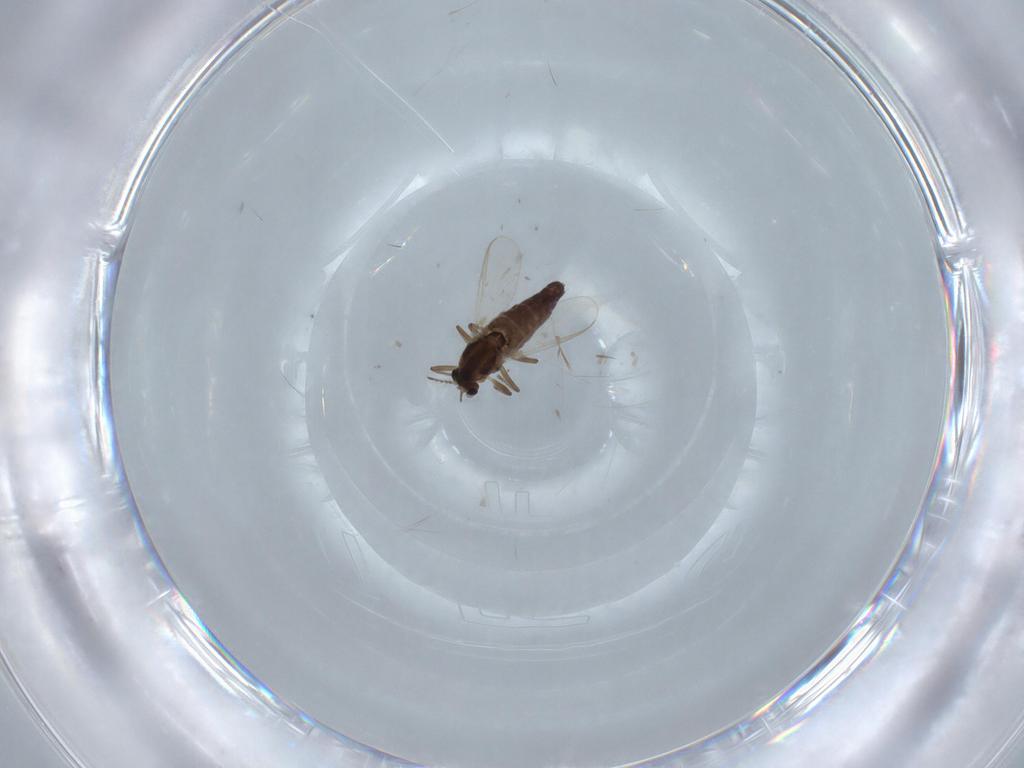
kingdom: Animalia
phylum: Arthropoda
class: Insecta
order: Diptera
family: Chironomidae
